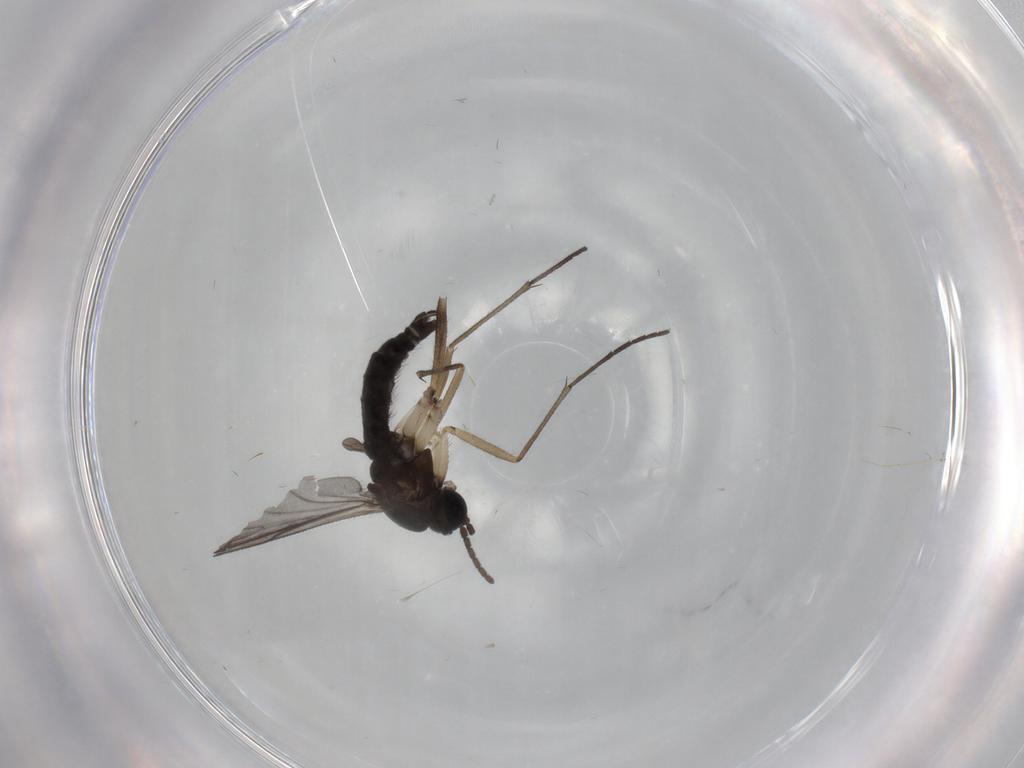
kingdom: Animalia
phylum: Arthropoda
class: Insecta
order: Diptera
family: Sciaridae
